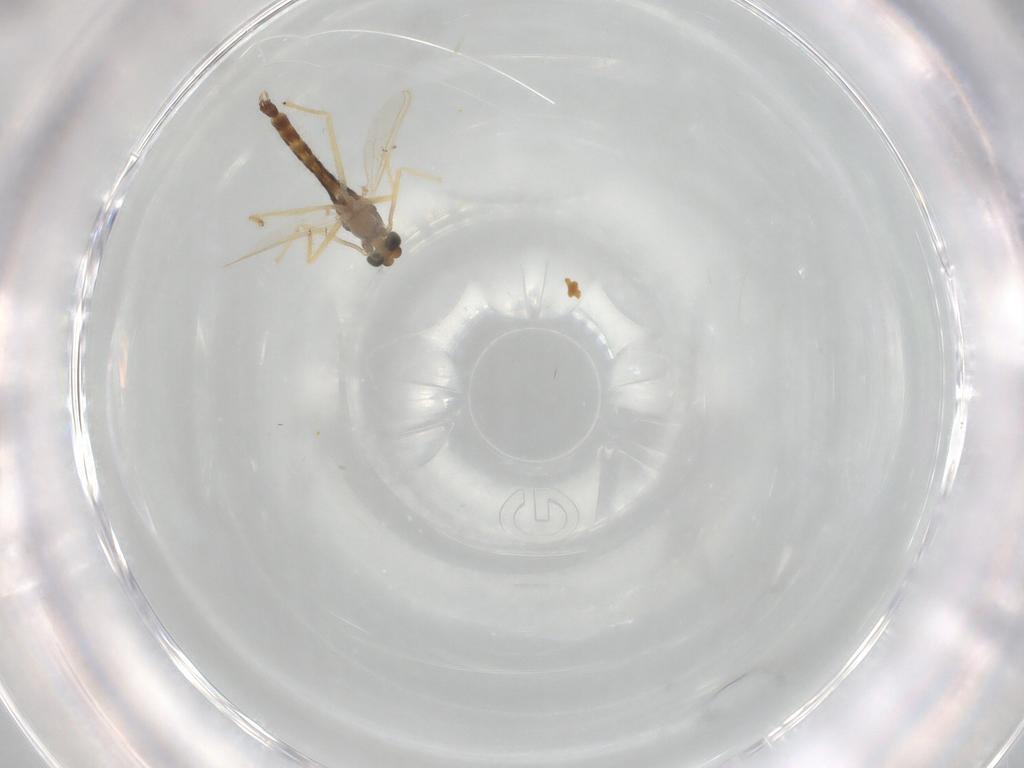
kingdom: Animalia
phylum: Arthropoda
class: Insecta
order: Diptera
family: Chironomidae
